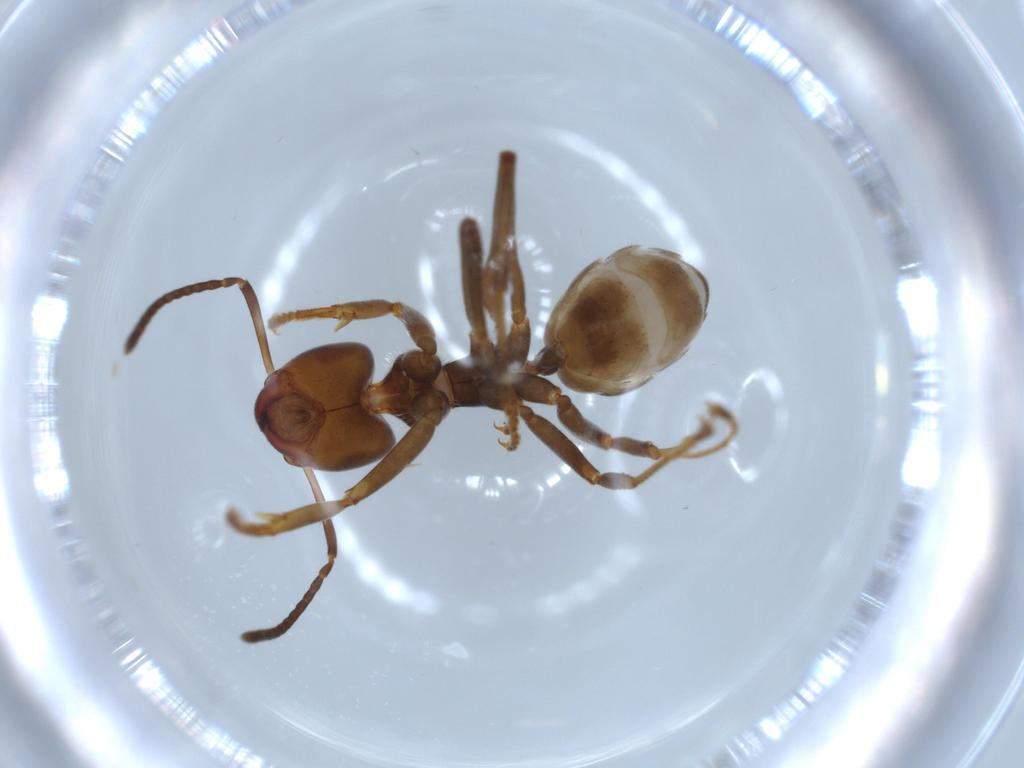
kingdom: Animalia
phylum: Arthropoda
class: Insecta
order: Hymenoptera
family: Formicidae
